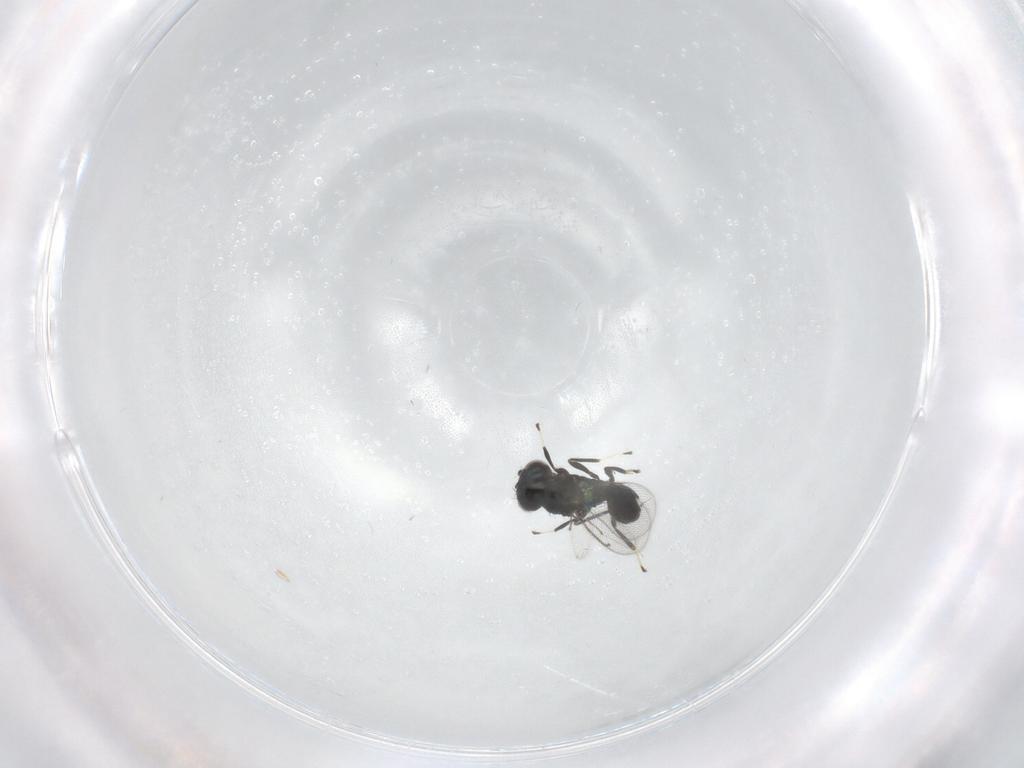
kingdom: Animalia
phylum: Arthropoda
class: Insecta
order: Hymenoptera
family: Eulophidae
